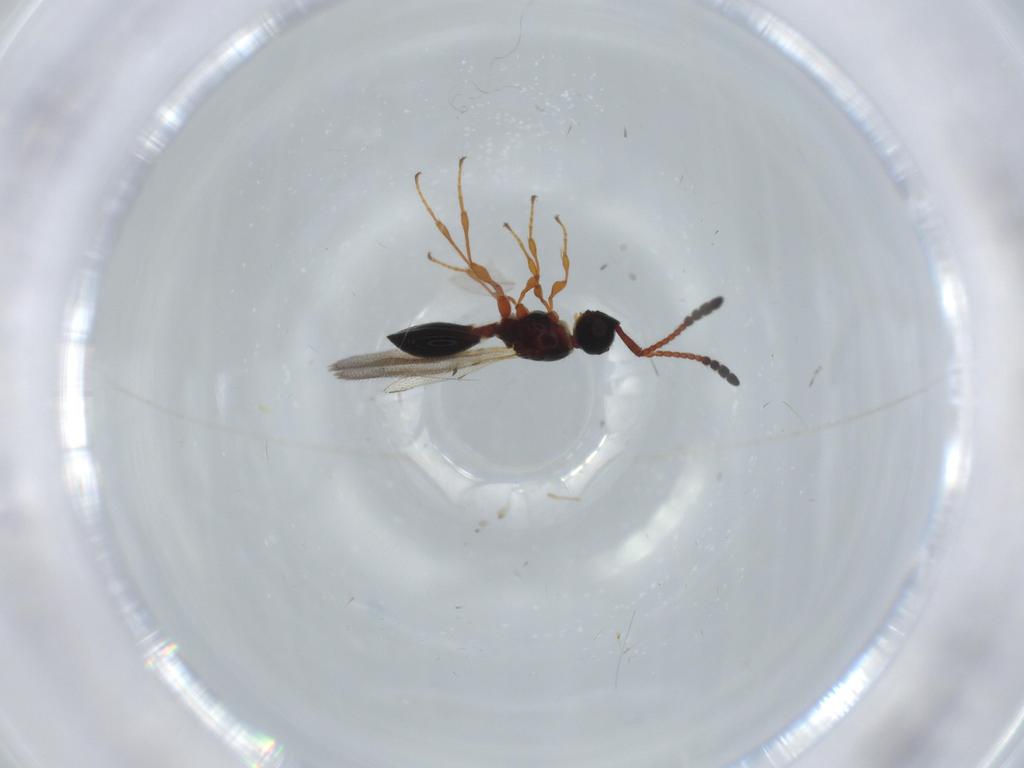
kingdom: Animalia
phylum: Arthropoda
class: Insecta
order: Hymenoptera
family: Diapriidae
